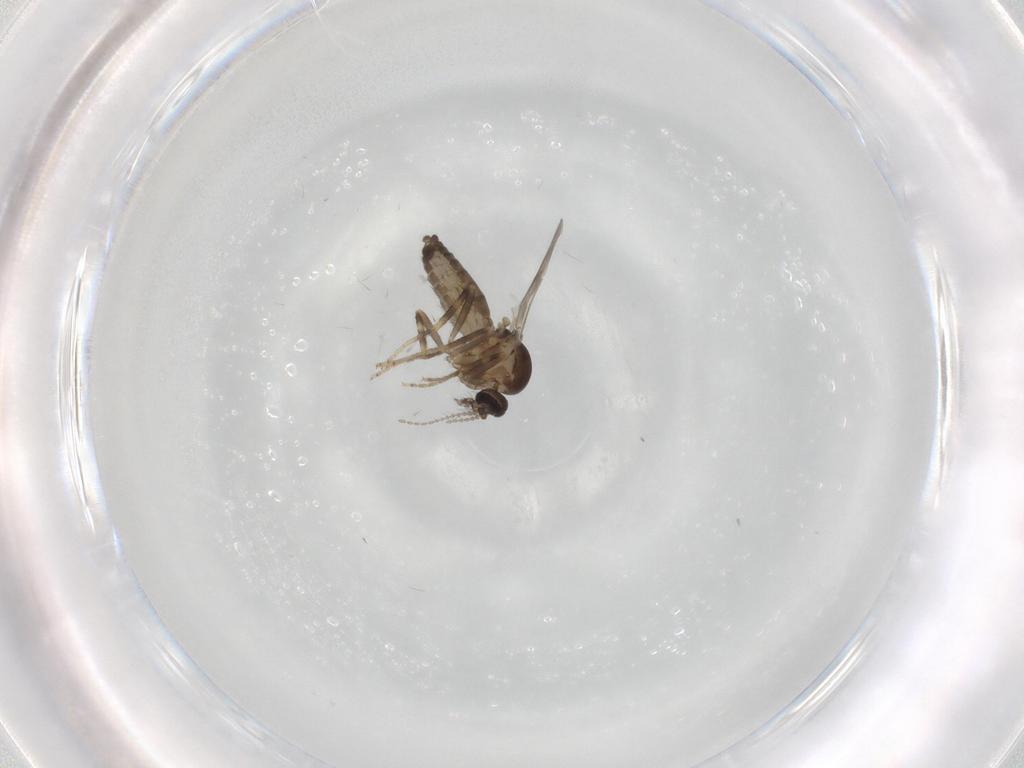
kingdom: Animalia
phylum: Arthropoda
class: Insecta
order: Diptera
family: Ceratopogonidae
